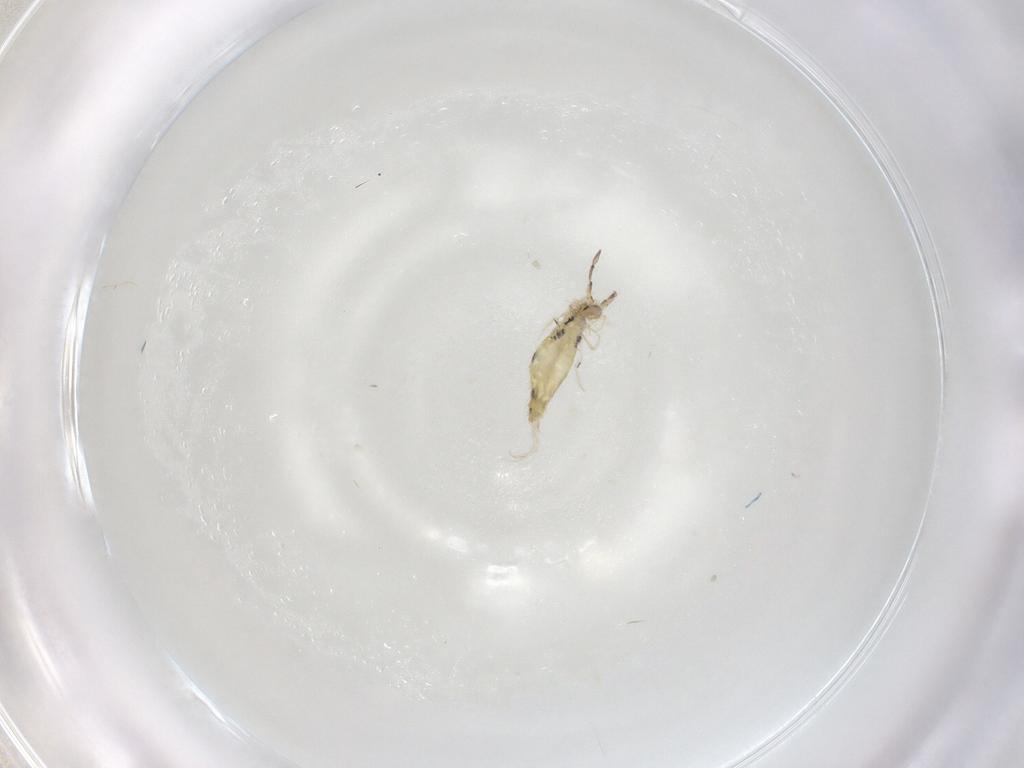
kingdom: Animalia
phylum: Arthropoda
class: Collembola
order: Entomobryomorpha
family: Entomobryidae
